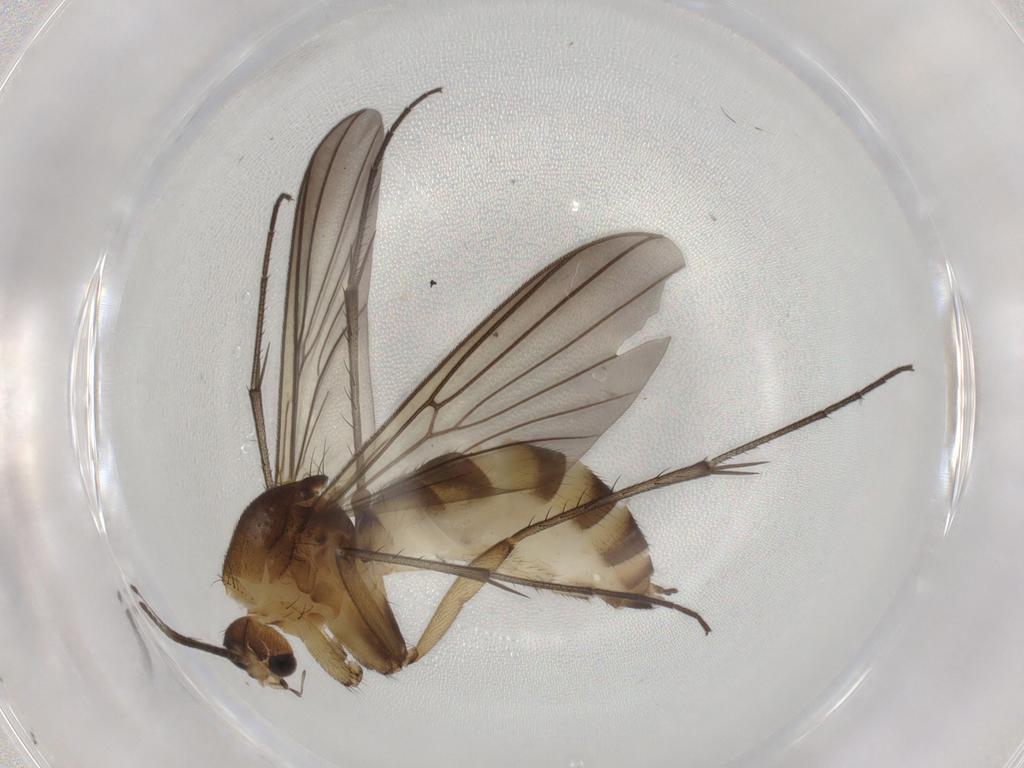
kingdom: Animalia
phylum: Arthropoda
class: Insecta
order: Diptera
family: Mycetophilidae
